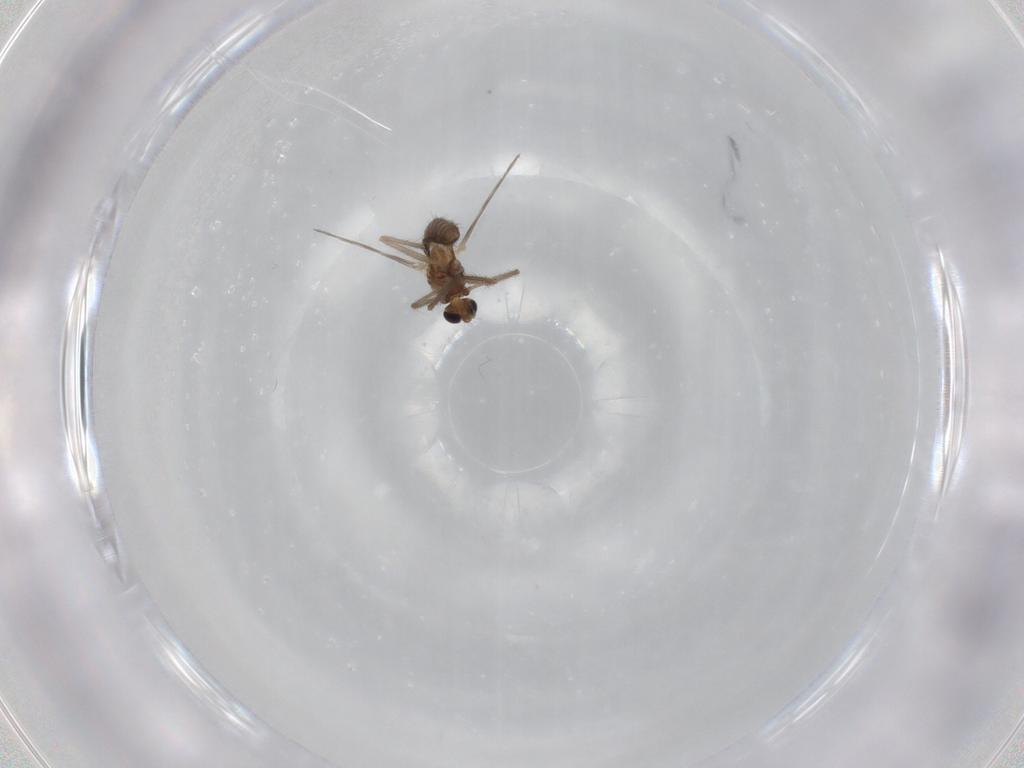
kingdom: Animalia
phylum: Arthropoda
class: Insecta
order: Diptera
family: Chironomidae
